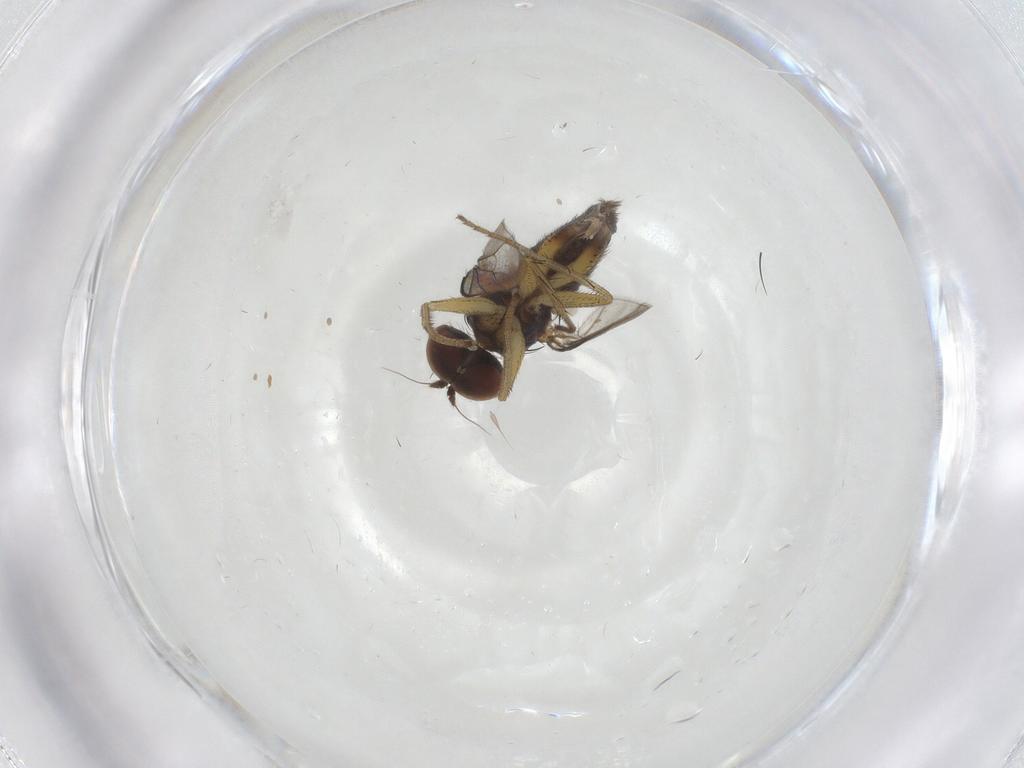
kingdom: Animalia
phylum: Arthropoda
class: Insecta
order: Diptera
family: Dolichopodidae
